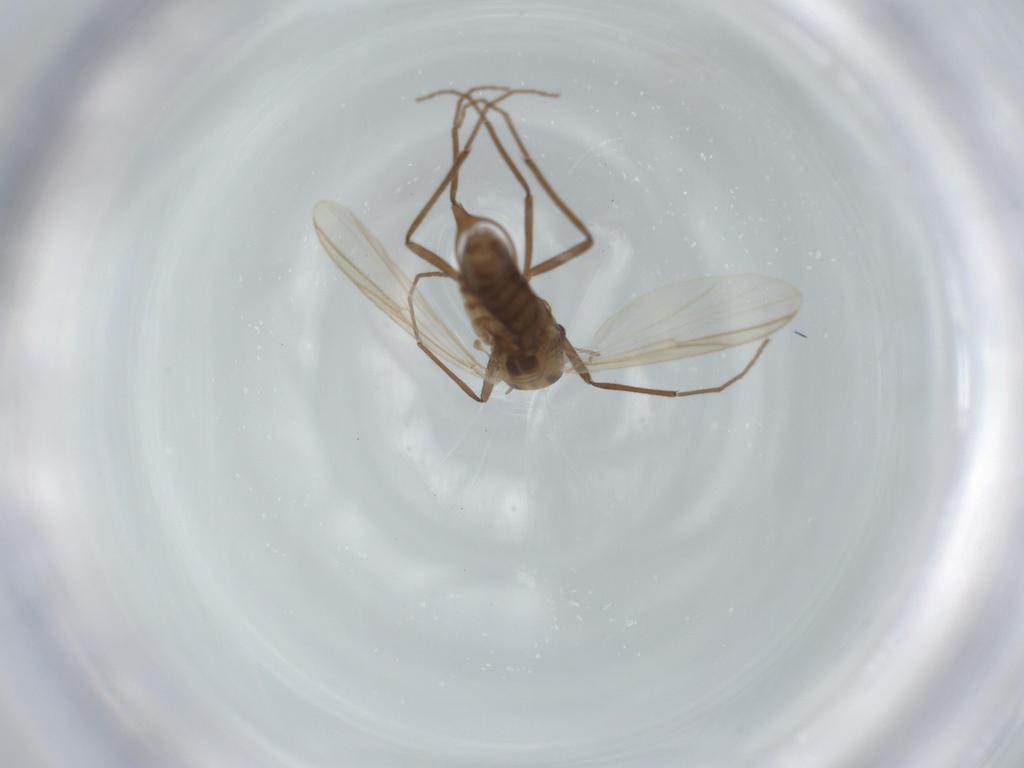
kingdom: Animalia
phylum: Arthropoda
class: Insecta
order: Diptera
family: Chironomidae
